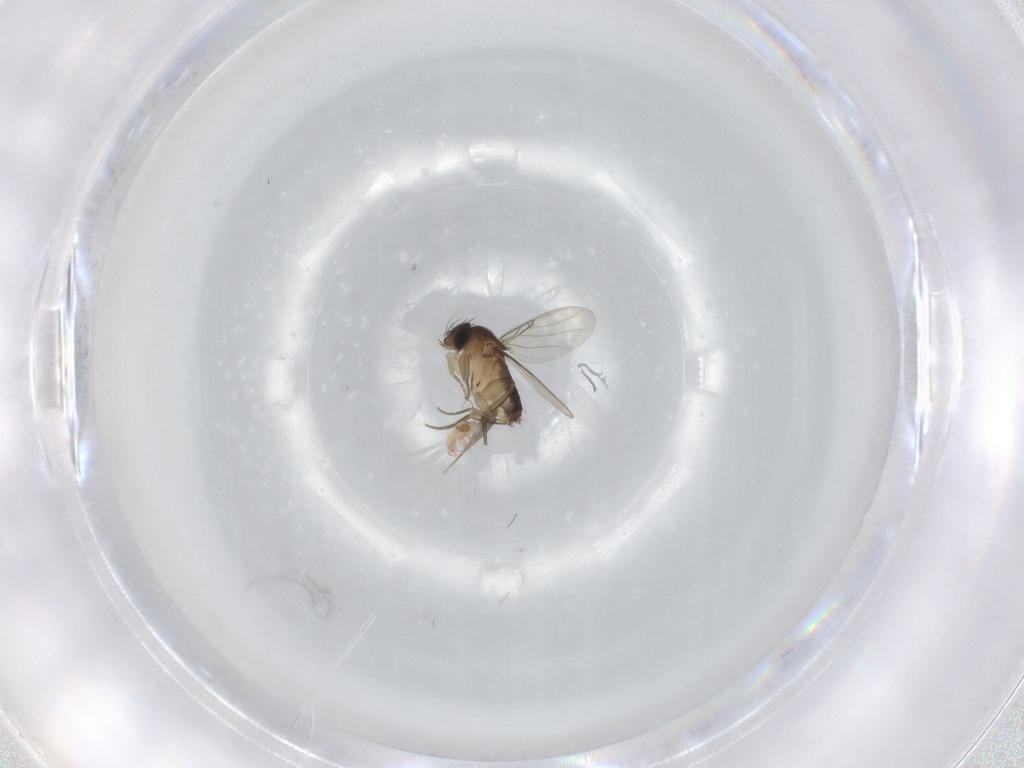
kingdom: Animalia
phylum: Arthropoda
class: Insecta
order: Diptera
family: Phoridae
